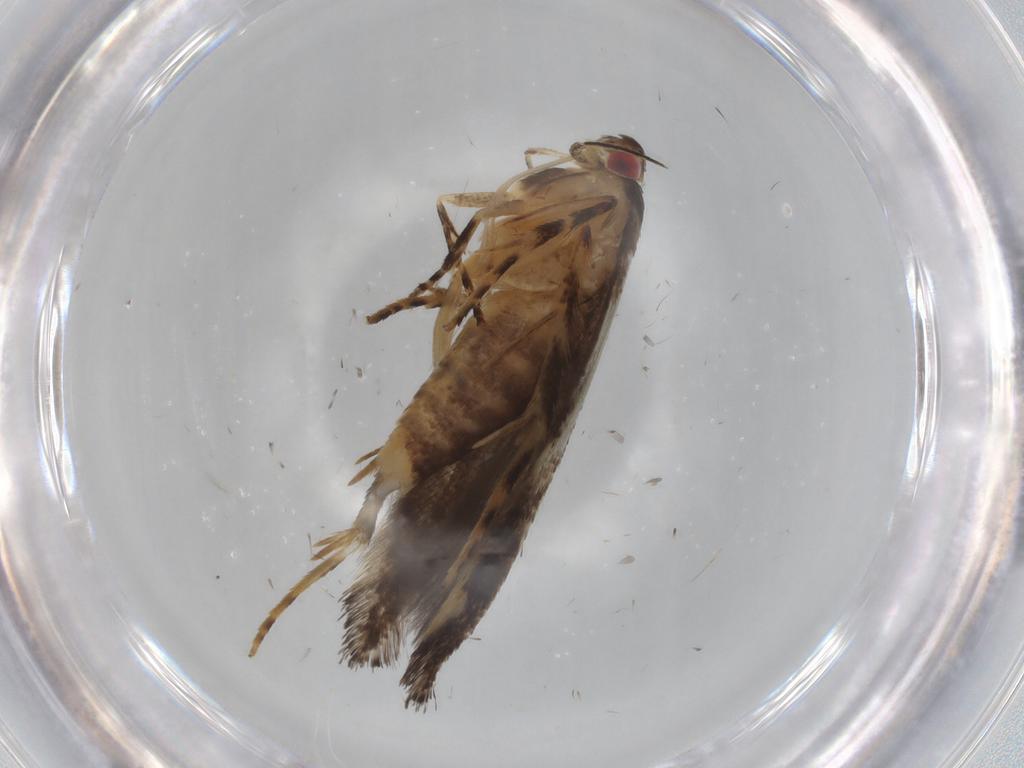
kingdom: Animalia
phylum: Arthropoda
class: Insecta
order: Lepidoptera
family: Cosmopterigidae
